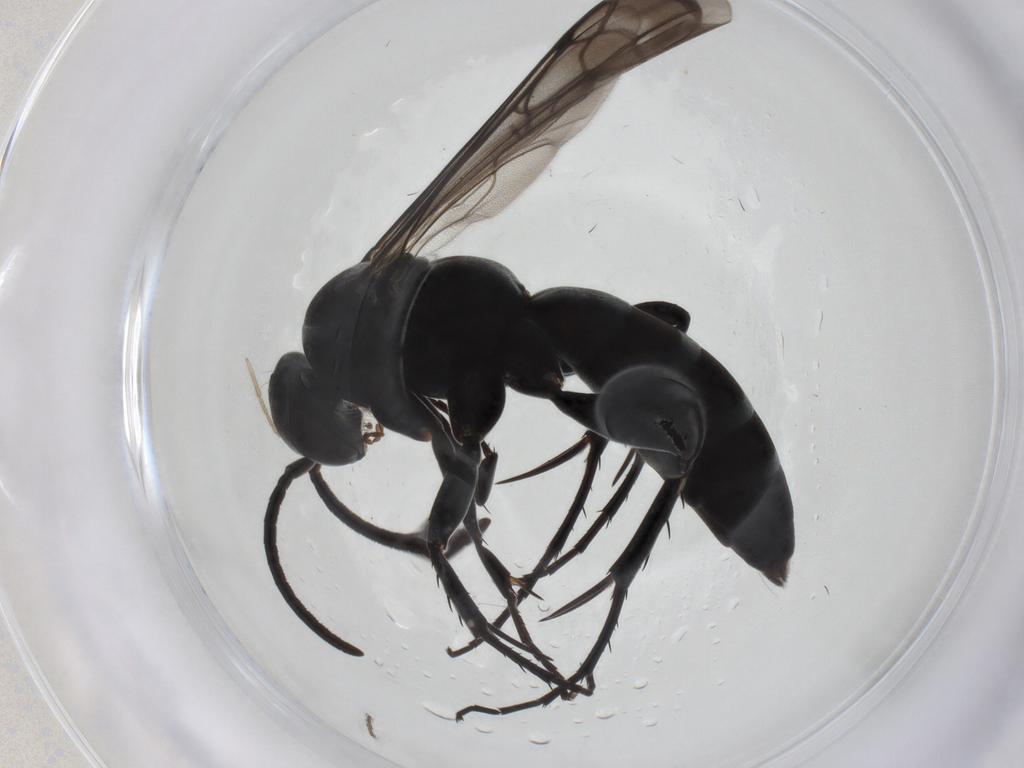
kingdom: Animalia
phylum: Arthropoda
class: Insecta
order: Hymenoptera
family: Pompilidae
